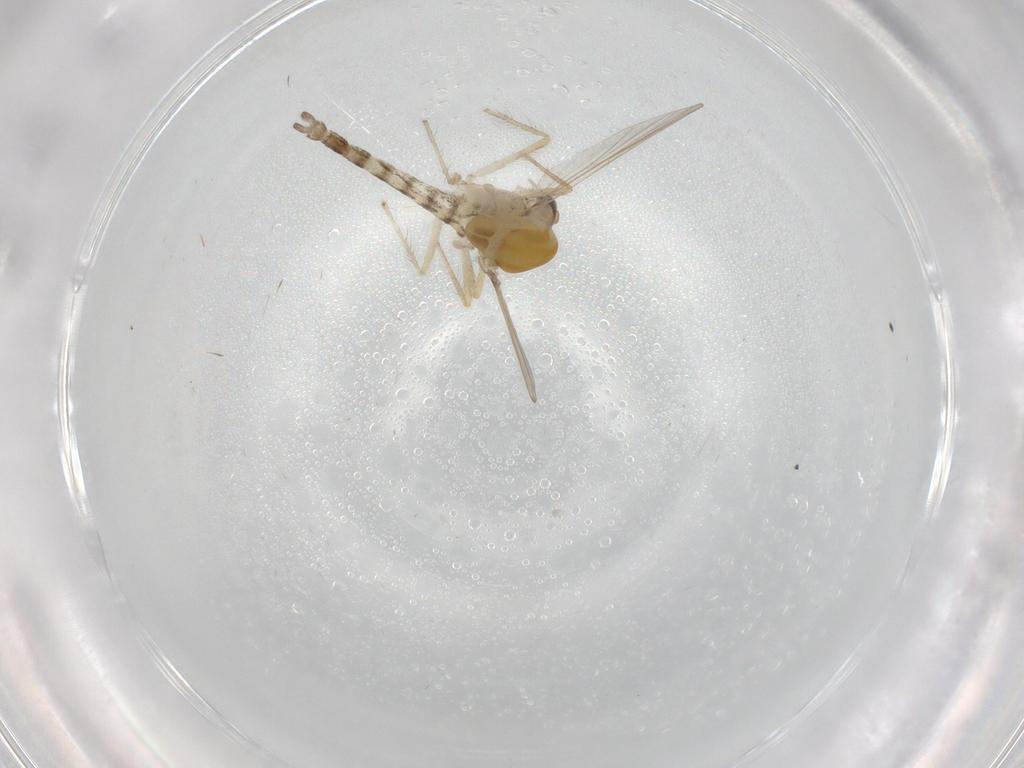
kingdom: Animalia
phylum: Arthropoda
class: Insecta
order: Diptera
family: Chironomidae
